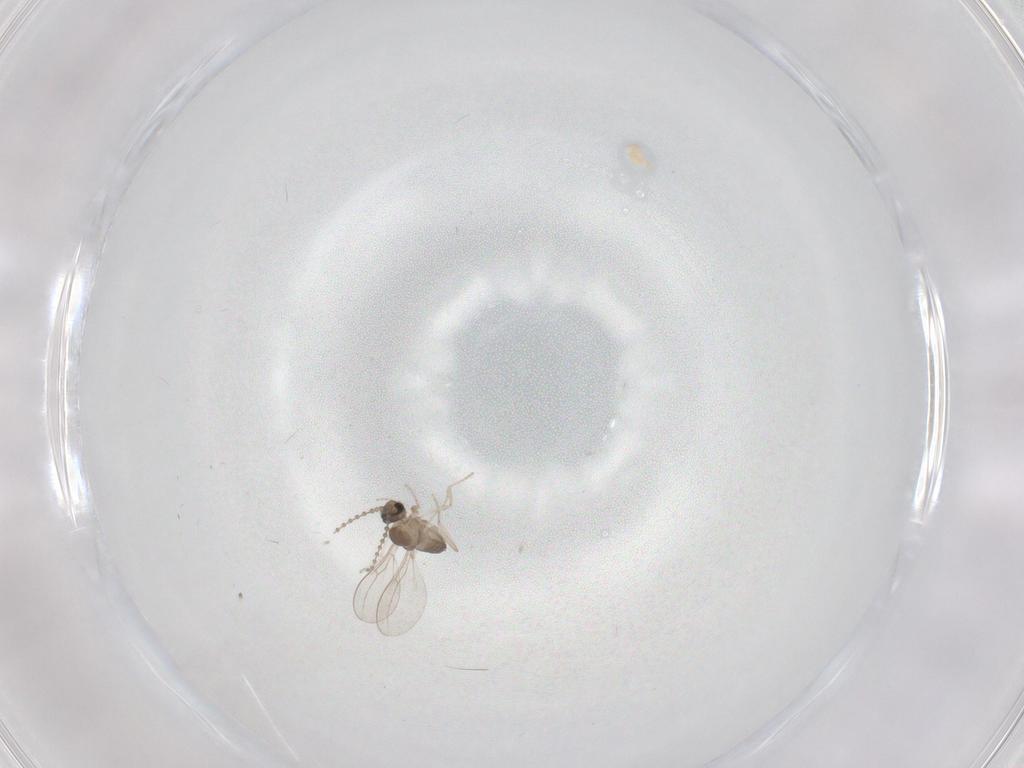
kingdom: Animalia
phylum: Arthropoda
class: Insecta
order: Diptera
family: Cecidomyiidae
